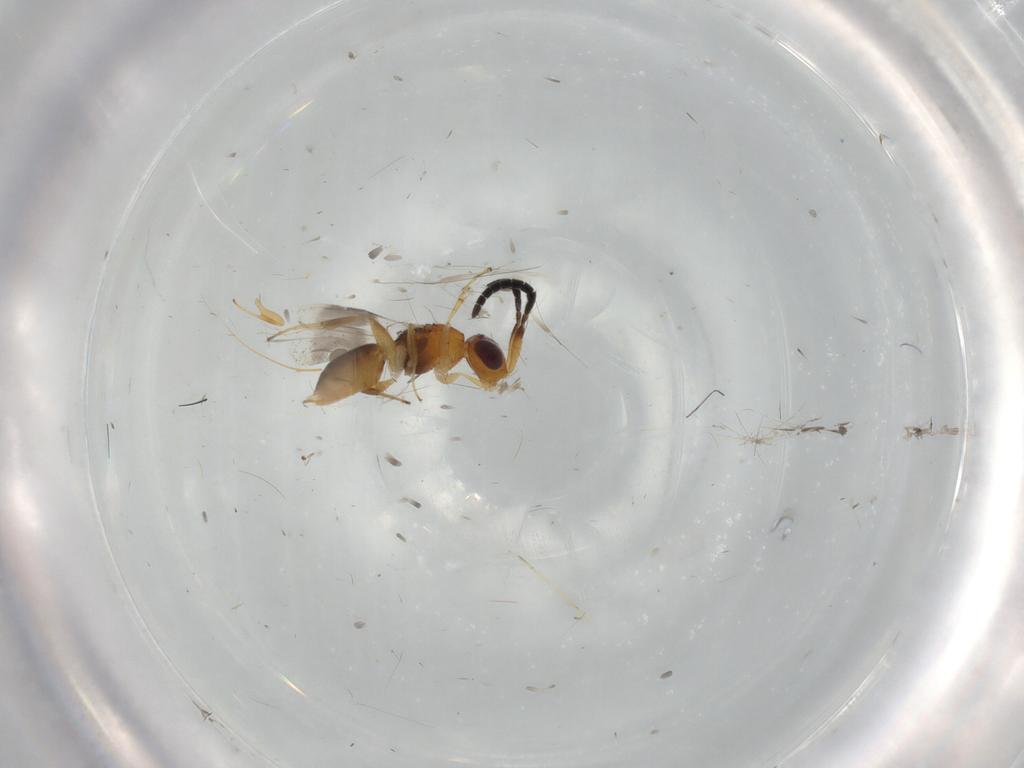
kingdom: Animalia
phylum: Arthropoda
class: Insecta
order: Hymenoptera
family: Megaspilidae
